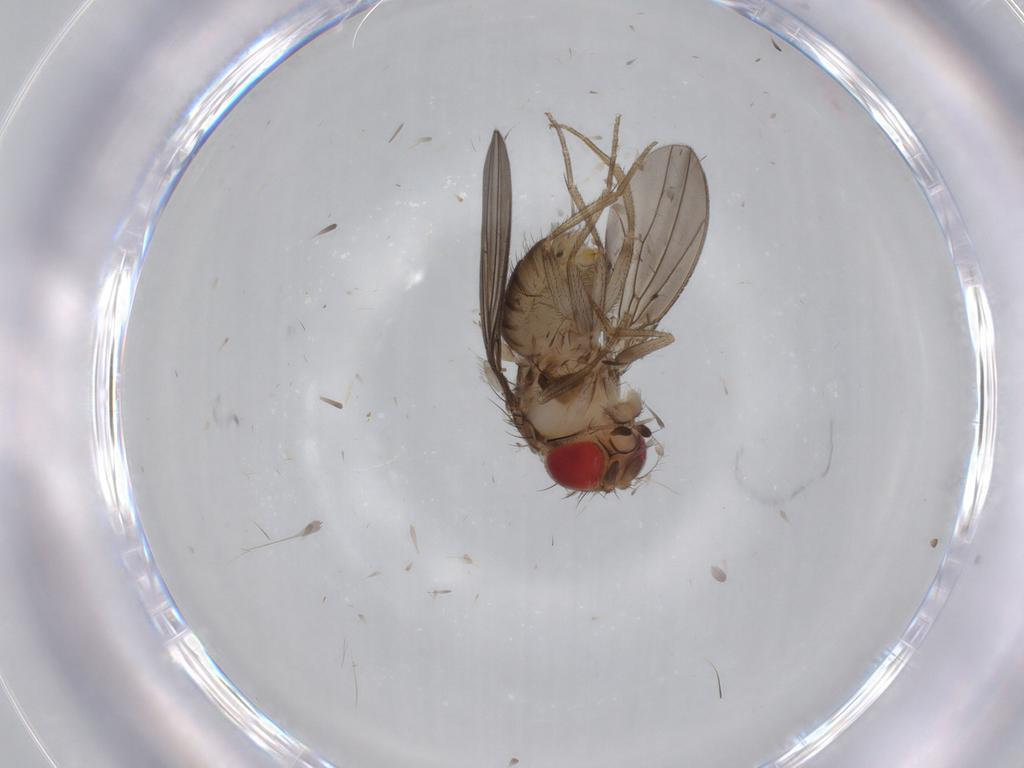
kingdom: Animalia
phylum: Arthropoda
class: Insecta
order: Diptera
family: Drosophilidae
